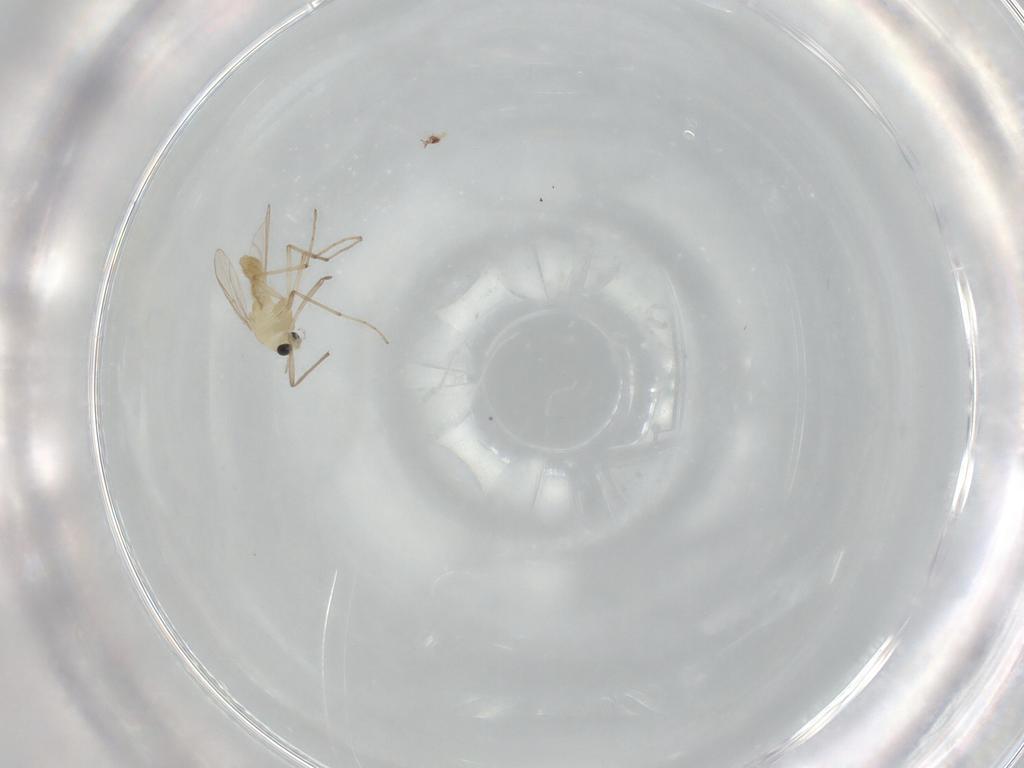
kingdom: Animalia
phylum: Arthropoda
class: Insecta
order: Diptera
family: Chironomidae
